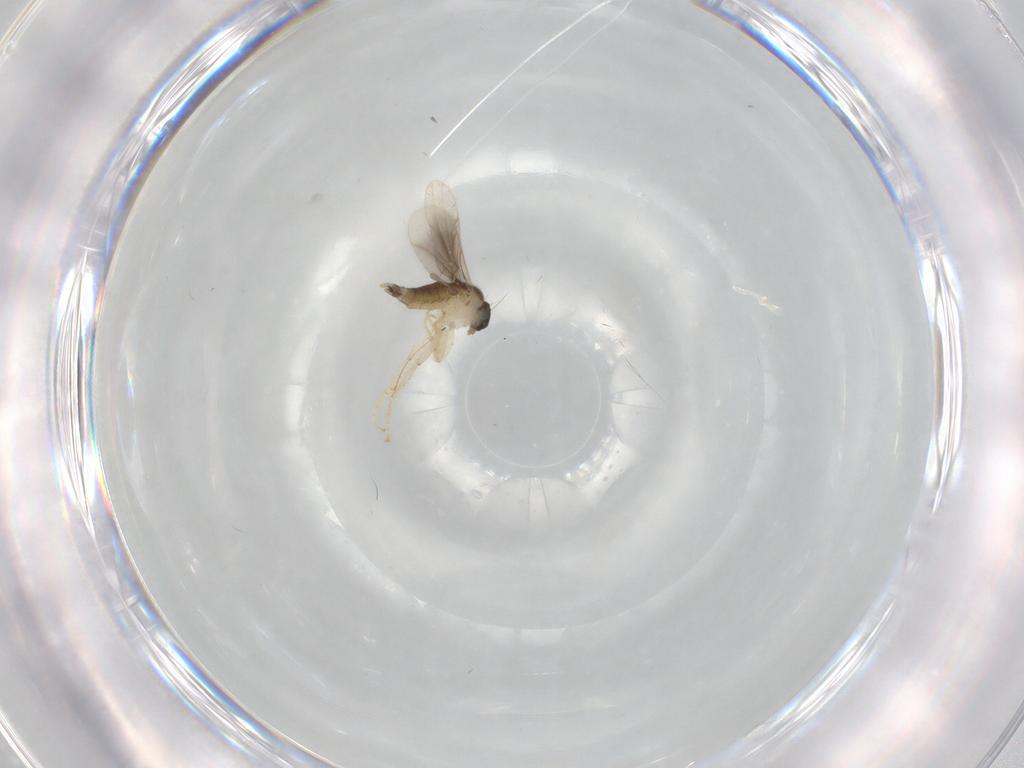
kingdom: Animalia
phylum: Arthropoda
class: Insecta
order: Diptera
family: Hybotidae
